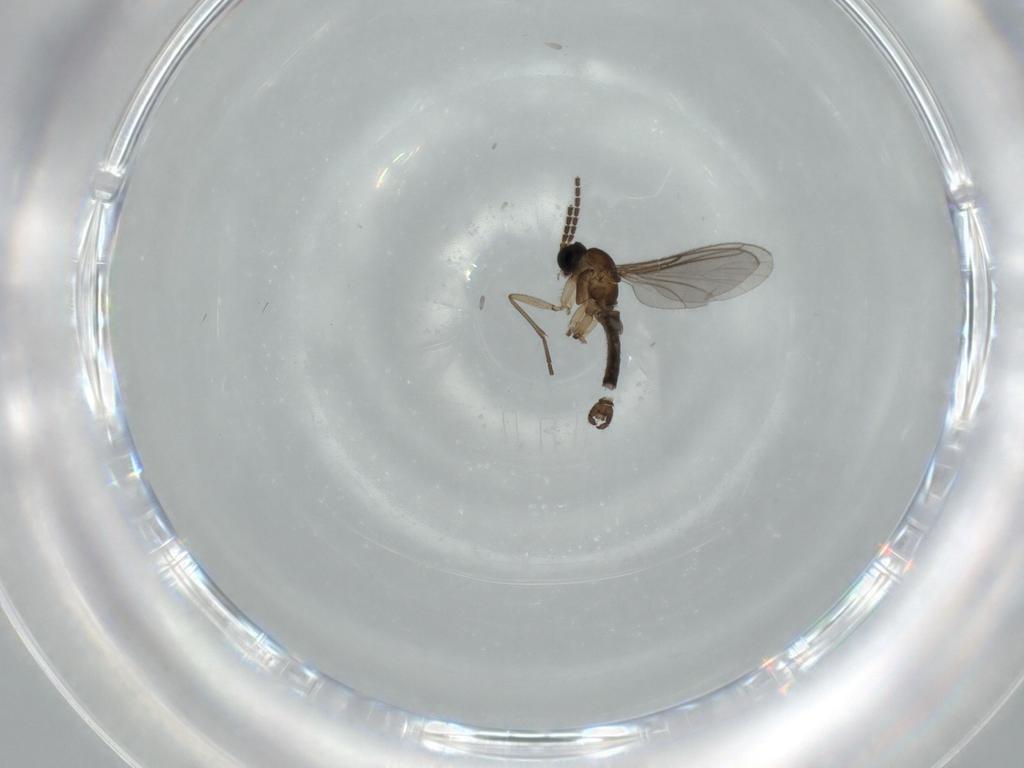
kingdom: Animalia
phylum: Arthropoda
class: Insecta
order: Diptera
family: Sciaridae
